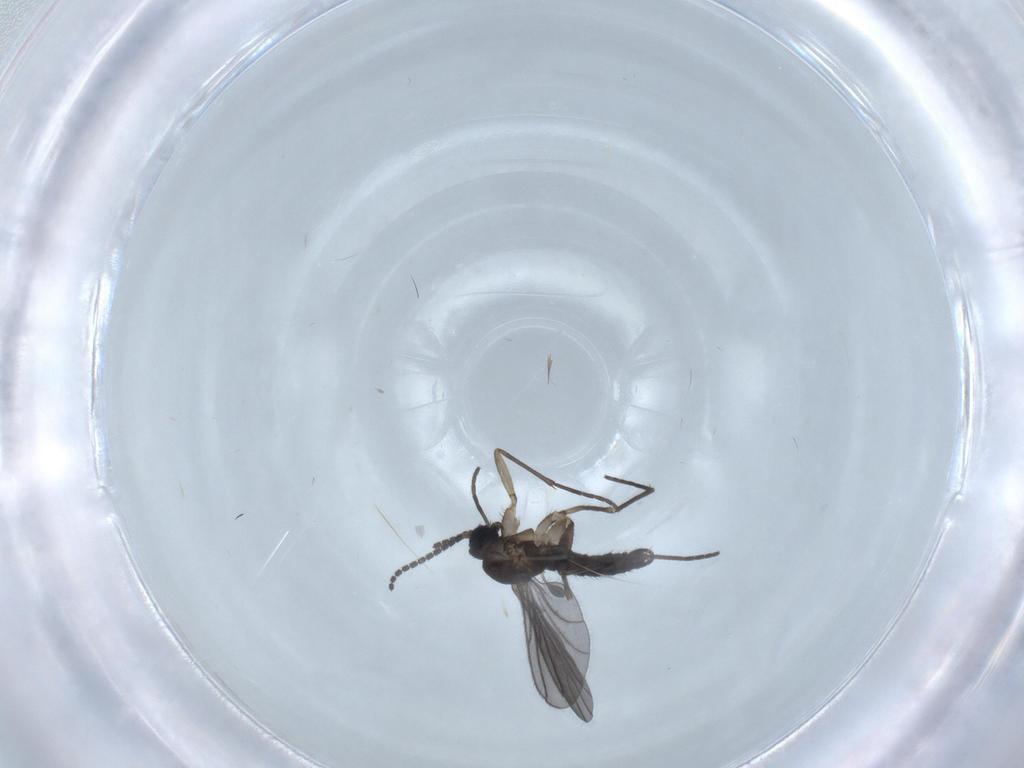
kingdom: Animalia
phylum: Arthropoda
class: Insecta
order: Diptera
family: Sciaridae
